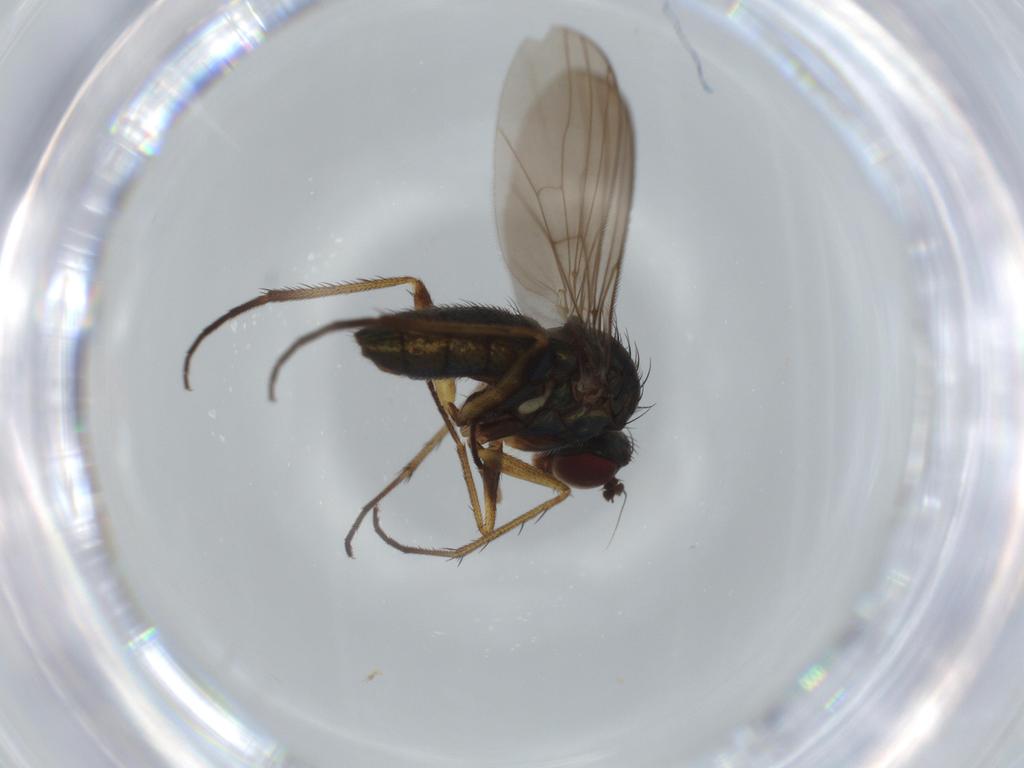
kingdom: Animalia
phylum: Arthropoda
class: Insecta
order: Diptera
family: Dolichopodidae
